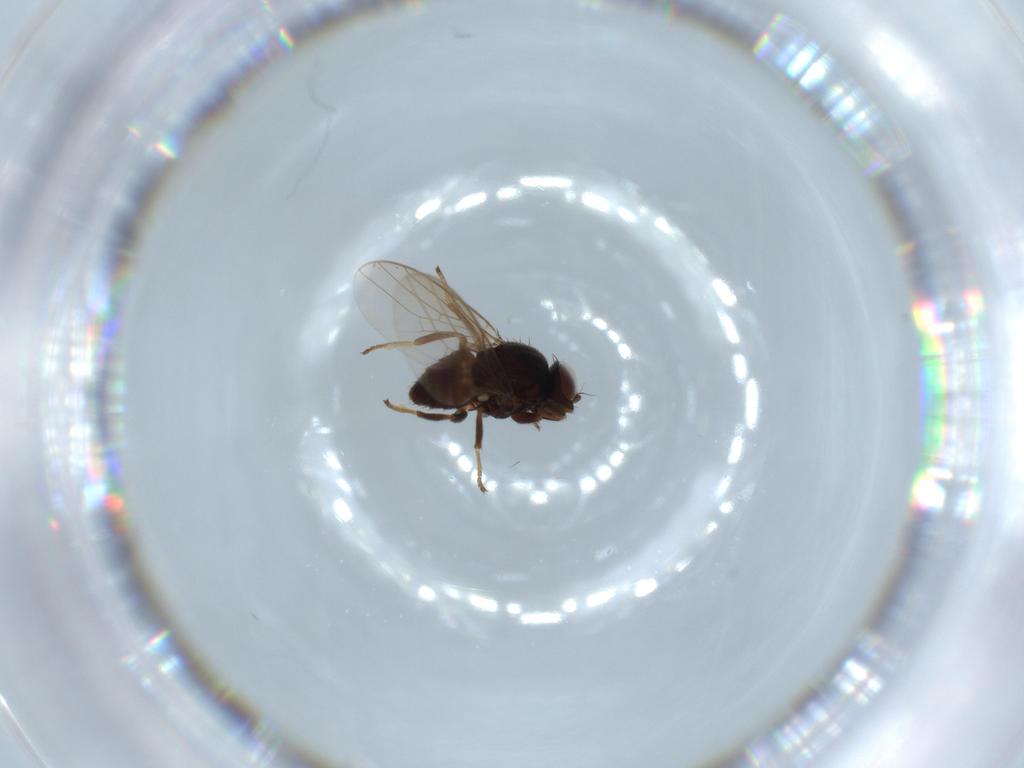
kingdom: Animalia
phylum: Arthropoda
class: Insecta
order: Diptera
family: Chloropidae
